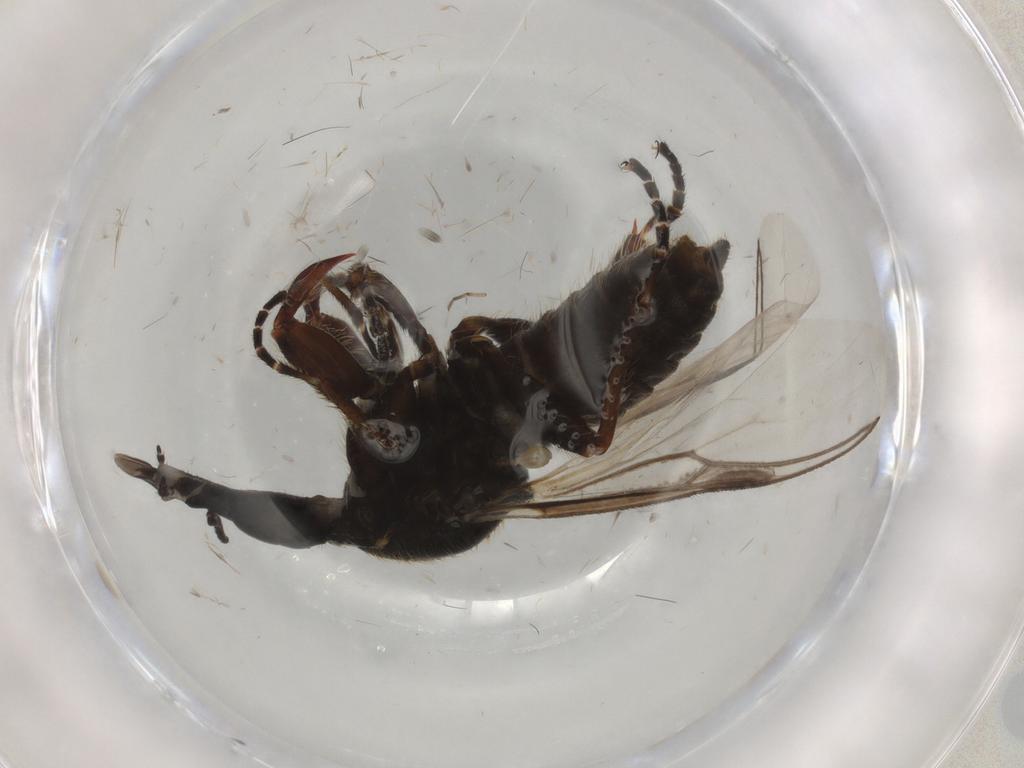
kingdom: Animalia
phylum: Arthropoda
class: Insecta
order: Diptera
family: Bibionidae
